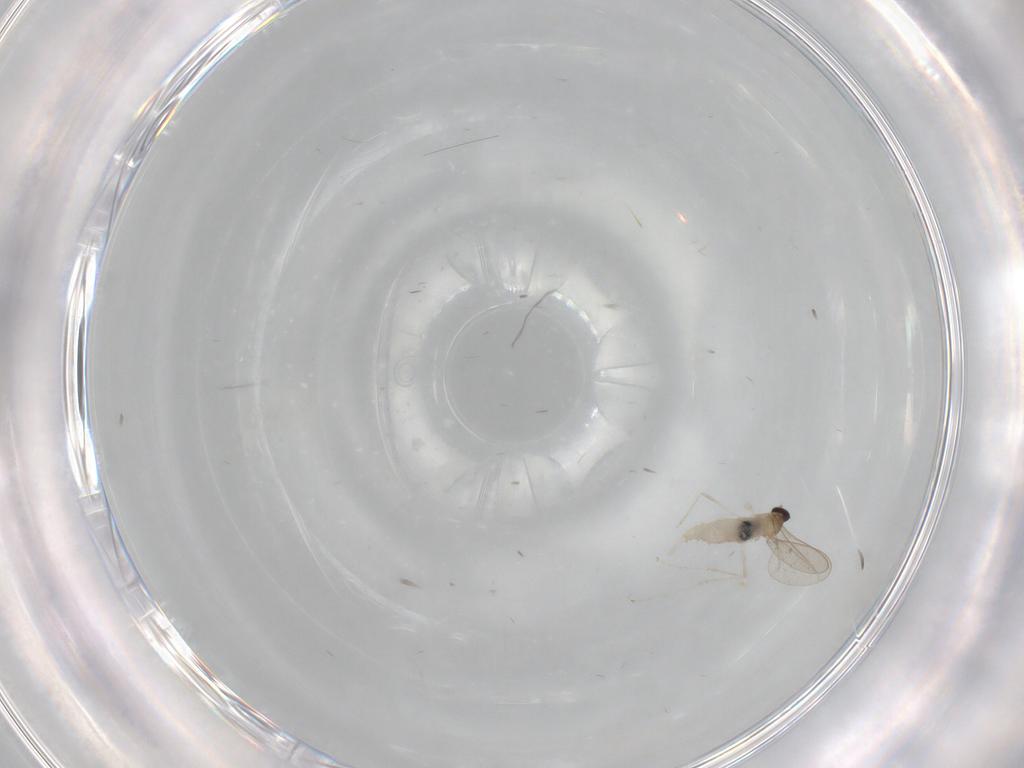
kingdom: Animalia
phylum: Arthropoda
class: Insecta
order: Diptera
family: Cecidomyiidae
